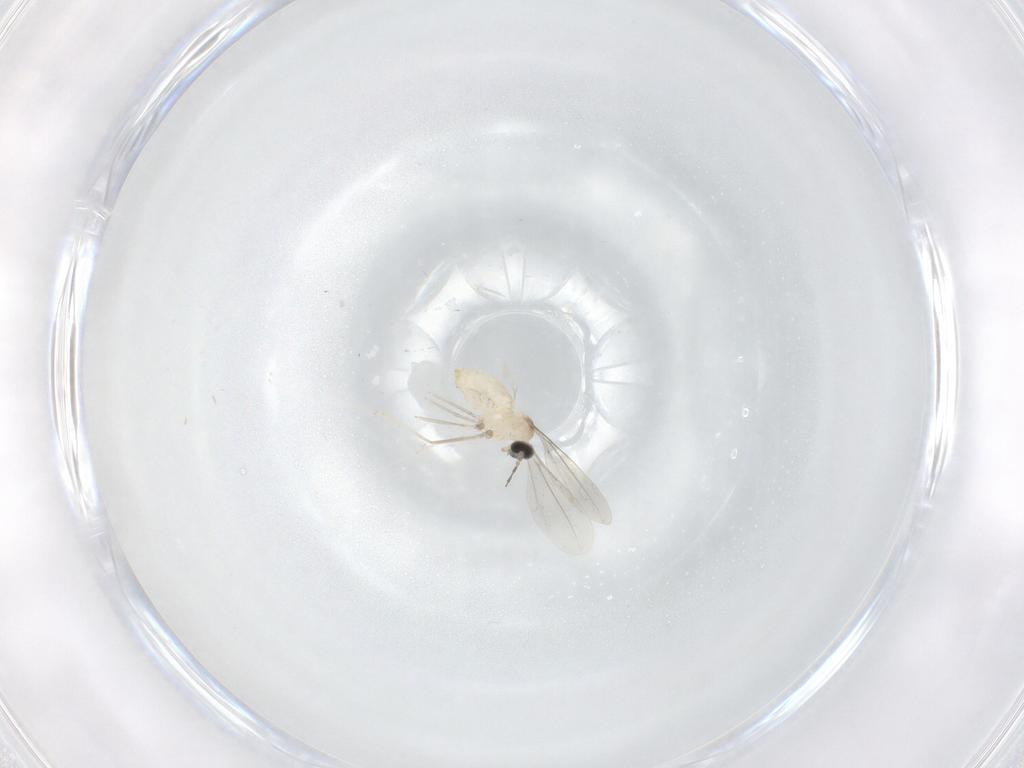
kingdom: Animalia
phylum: Arthropoda
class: Insecta
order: Diptera
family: Cecidomyiidae
